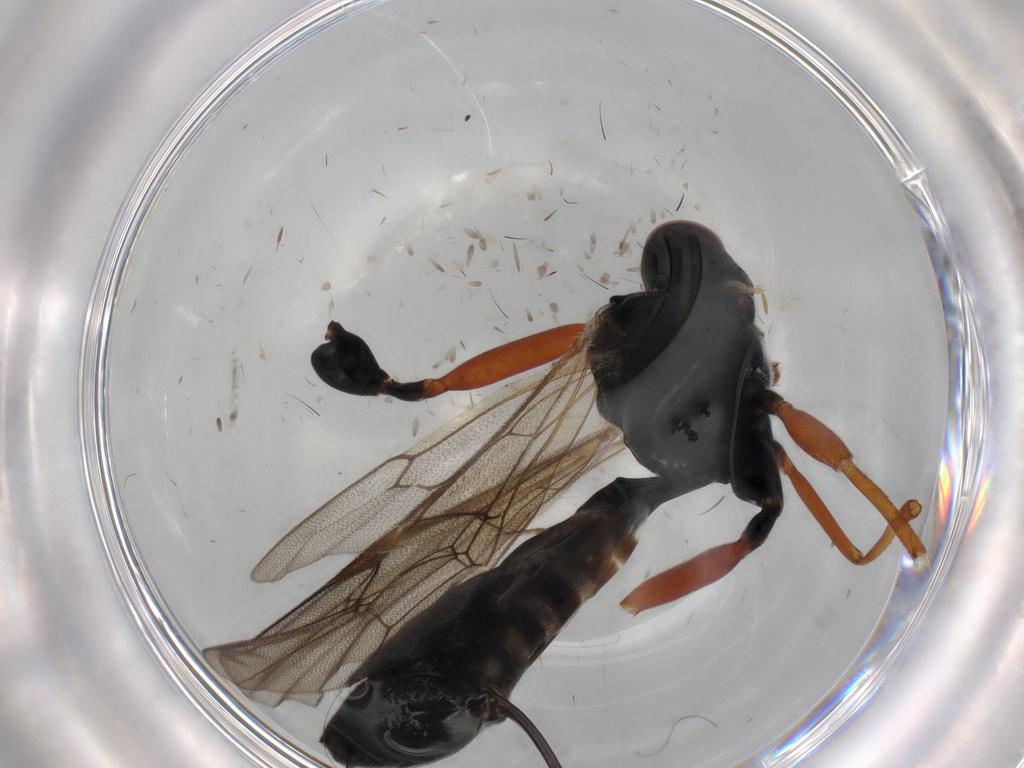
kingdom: Animalia
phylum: Arthropoda
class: Insecta
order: Hymenoptera
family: Ichneumonidae
